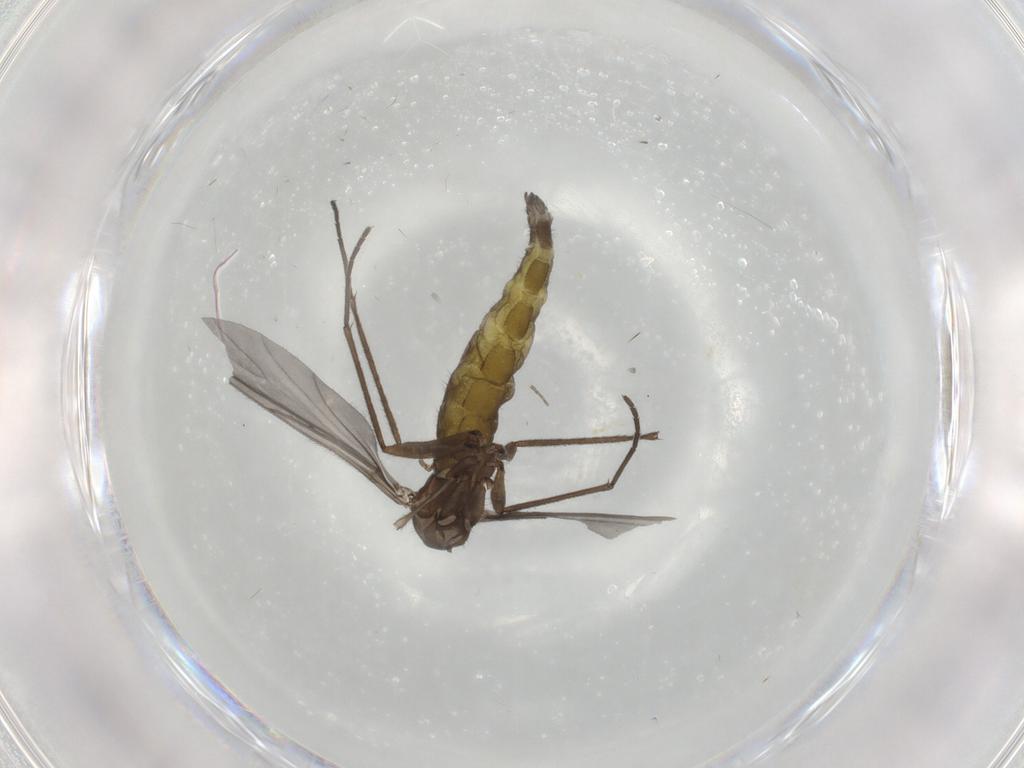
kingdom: Animalia
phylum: Arthropoda
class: Insecta
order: Diptera
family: Sciaridae
